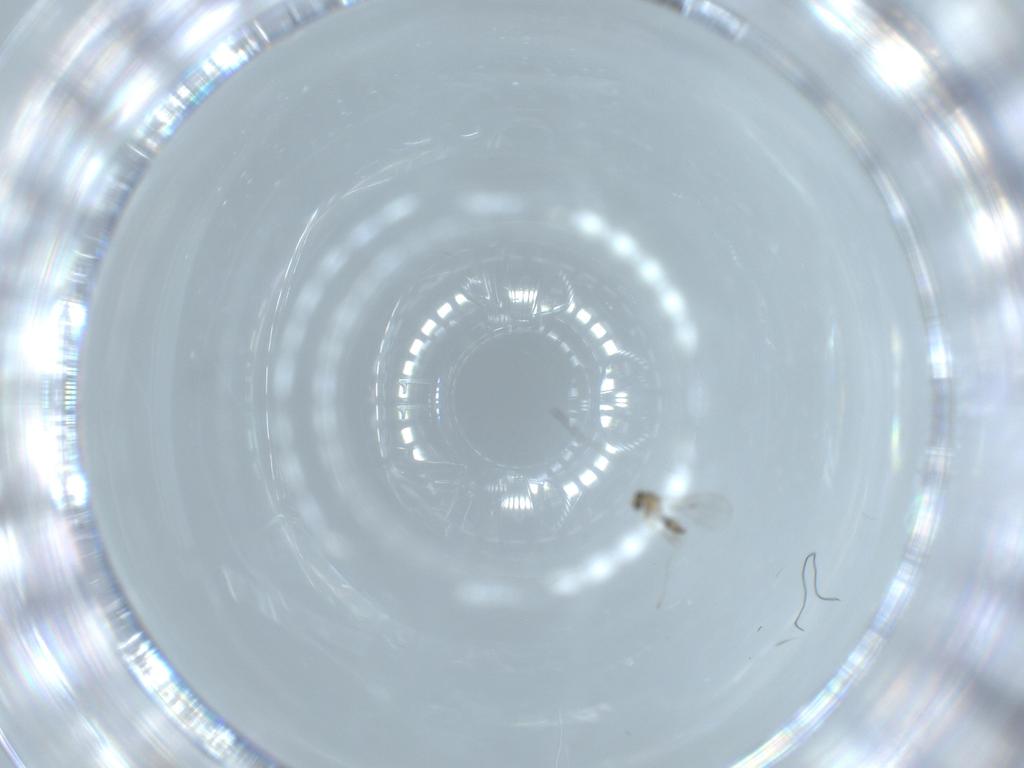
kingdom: Animalia
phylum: Arthropoda
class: Insecta
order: Diptera
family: Cecidomyiidae
